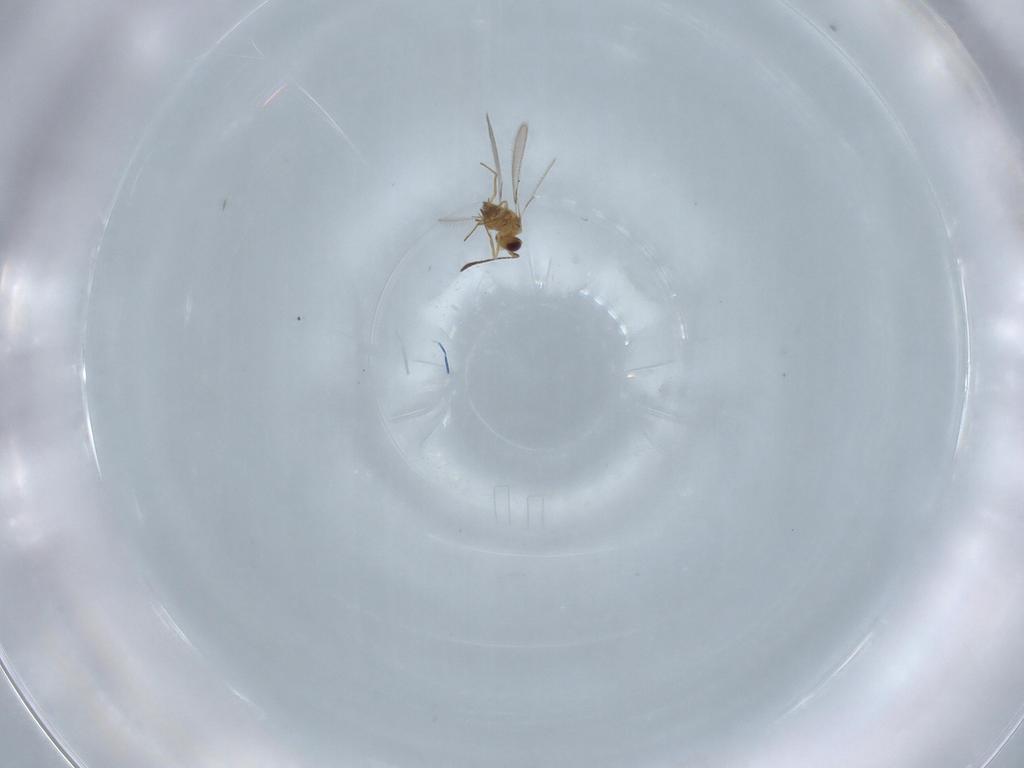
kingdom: Animalia
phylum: Arthropoda
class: Insecta
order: Hymenoptera
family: Mymaridae
